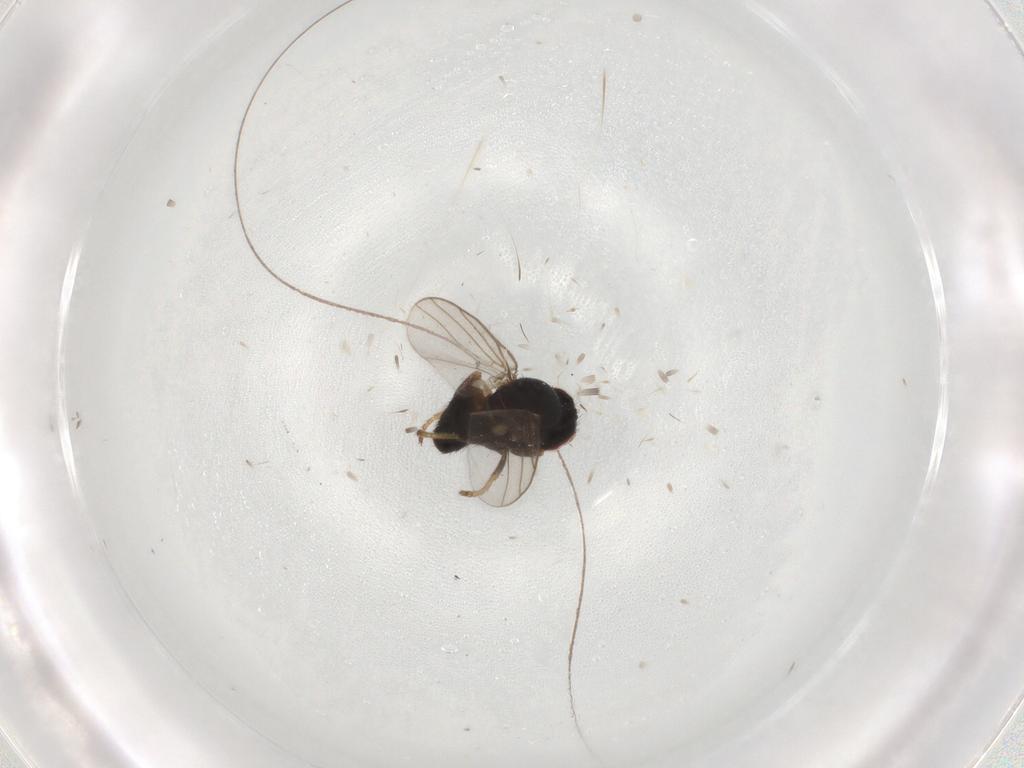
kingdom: Animalia
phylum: Arthropoda
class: Insecta
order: Diptera
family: Chloropidae
